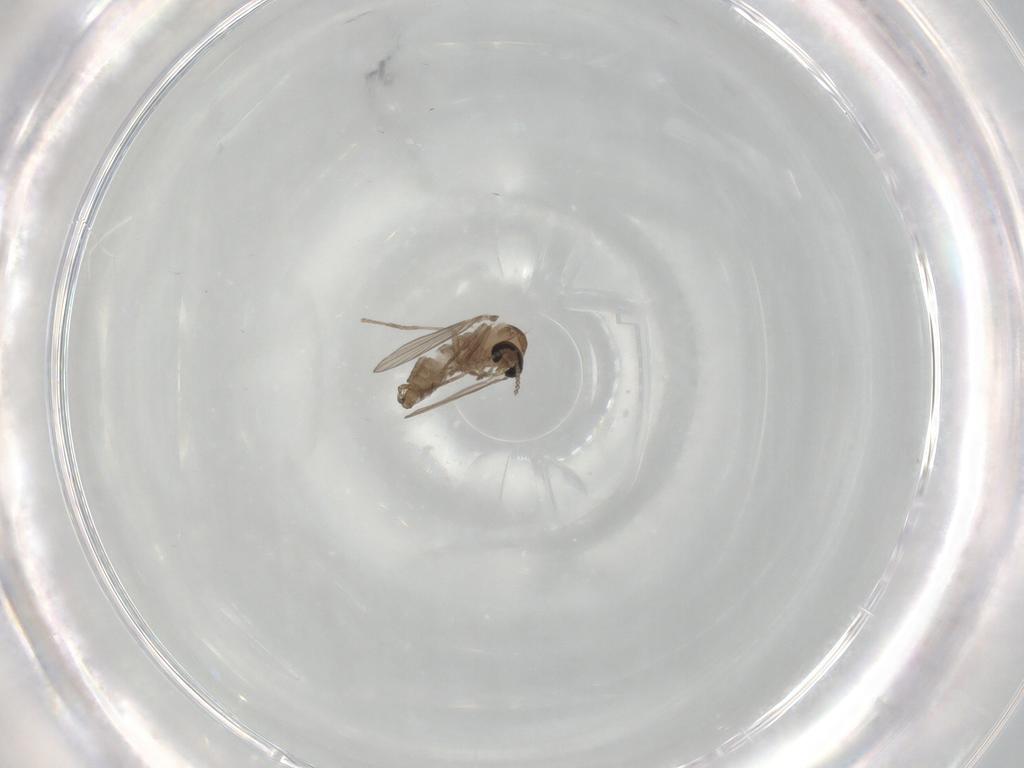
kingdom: Animalia
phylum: Arthropoda
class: Insecta
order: Diptera
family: Psychodidae
